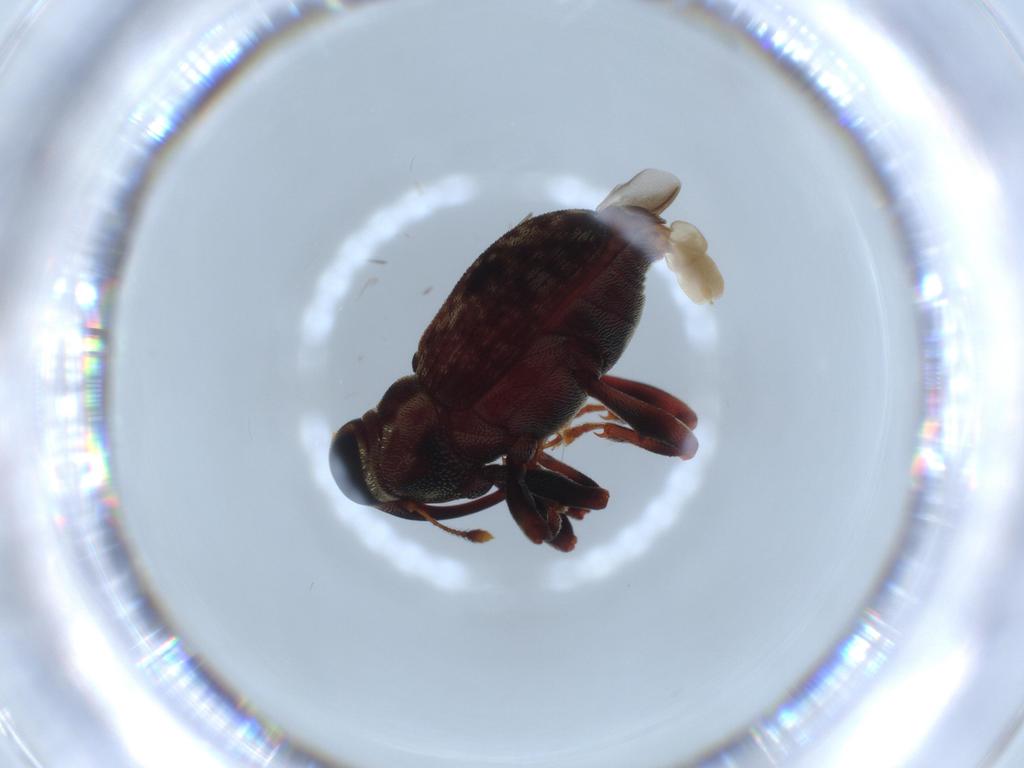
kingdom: Animalia
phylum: Arthropoda
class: Insecta
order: Coleoptera
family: Curculionidae
